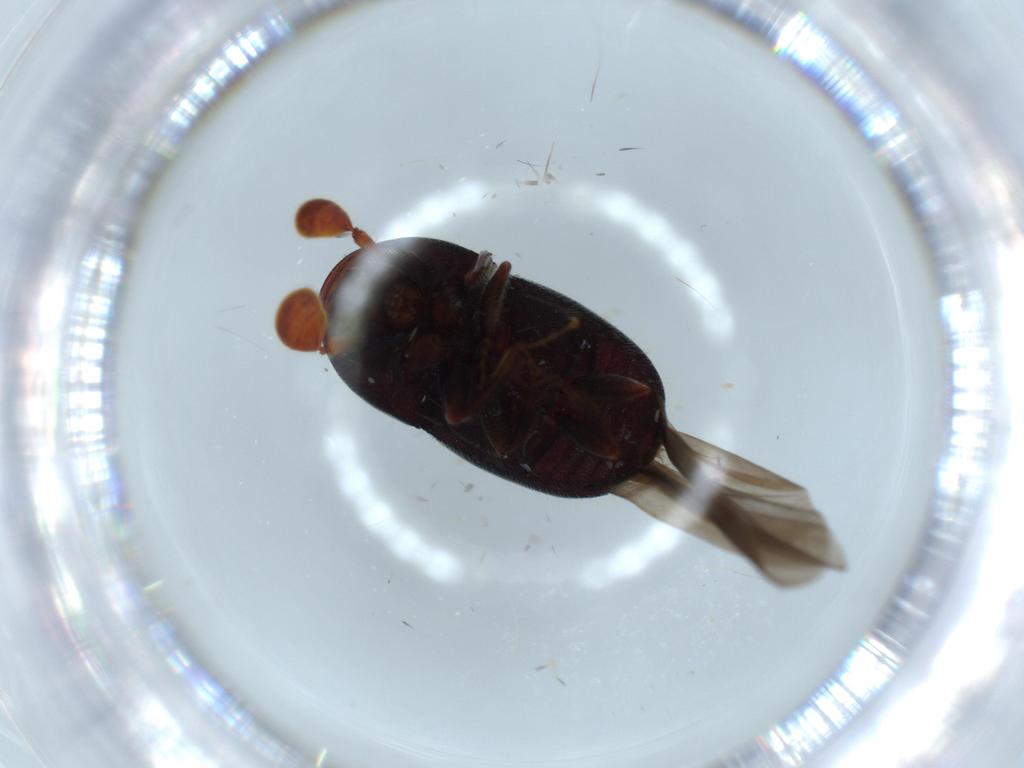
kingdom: Animalia
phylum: Arthropoda
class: Insecta
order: Coleoptera
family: Curculionidae
